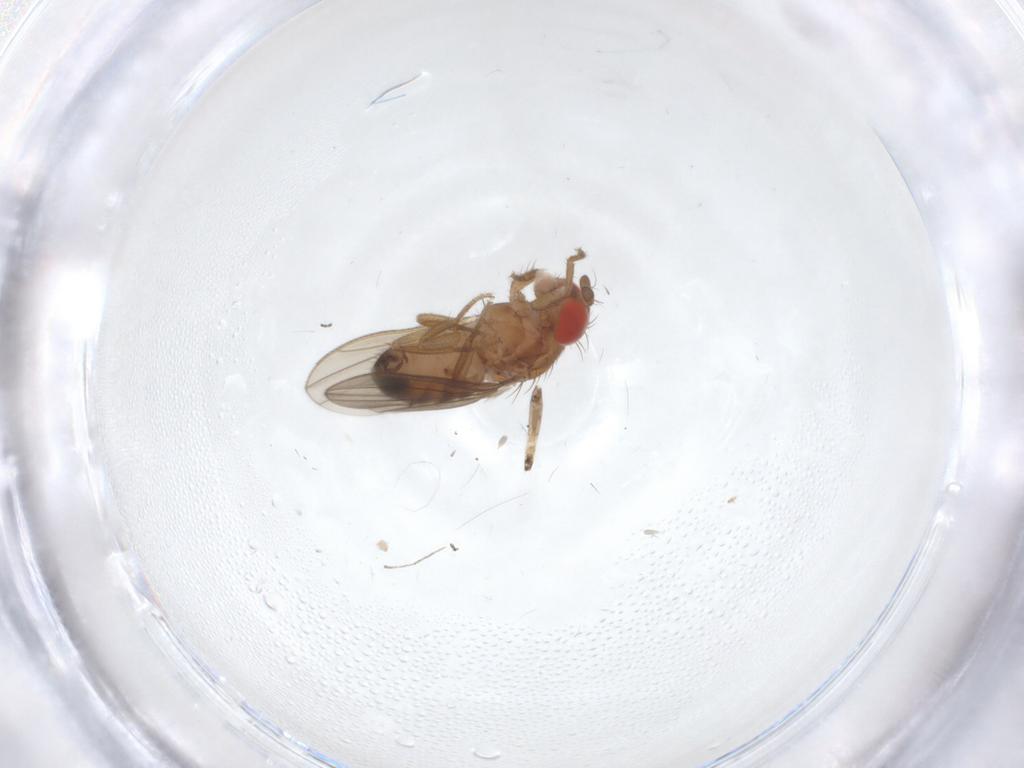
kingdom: Animalia
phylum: Arthropoda
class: Insecta
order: Diptera
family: Drosophilidae
